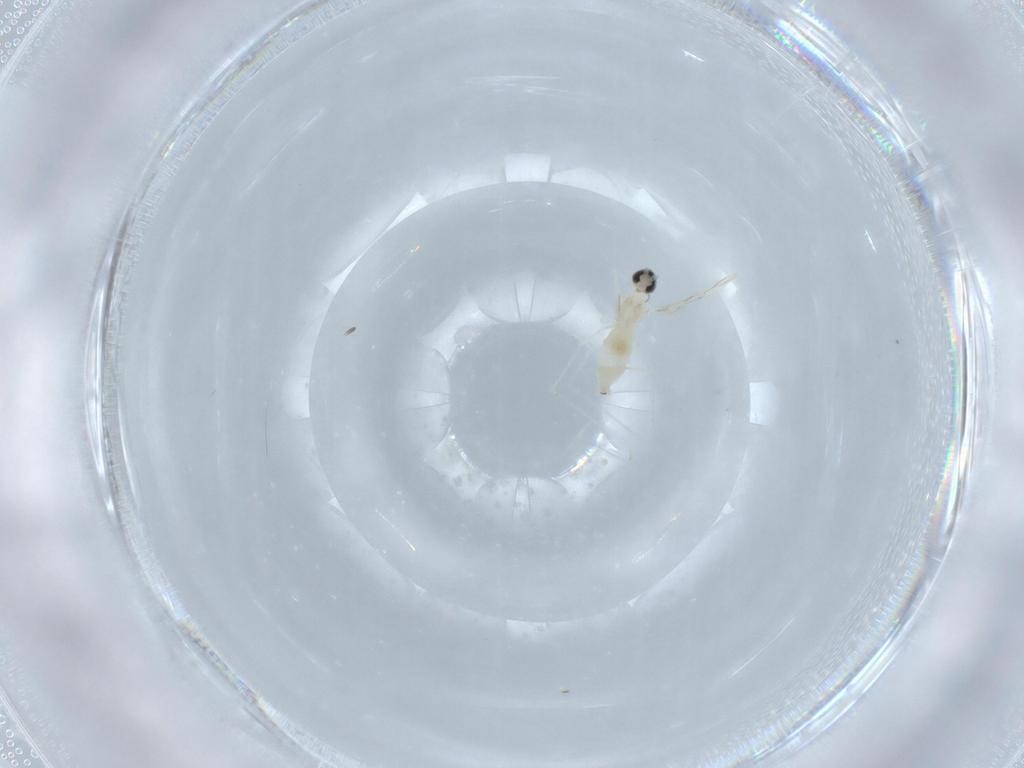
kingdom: Animalia
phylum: Arthropoda
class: Insecta
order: Diptera
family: Cecidomyiidae
